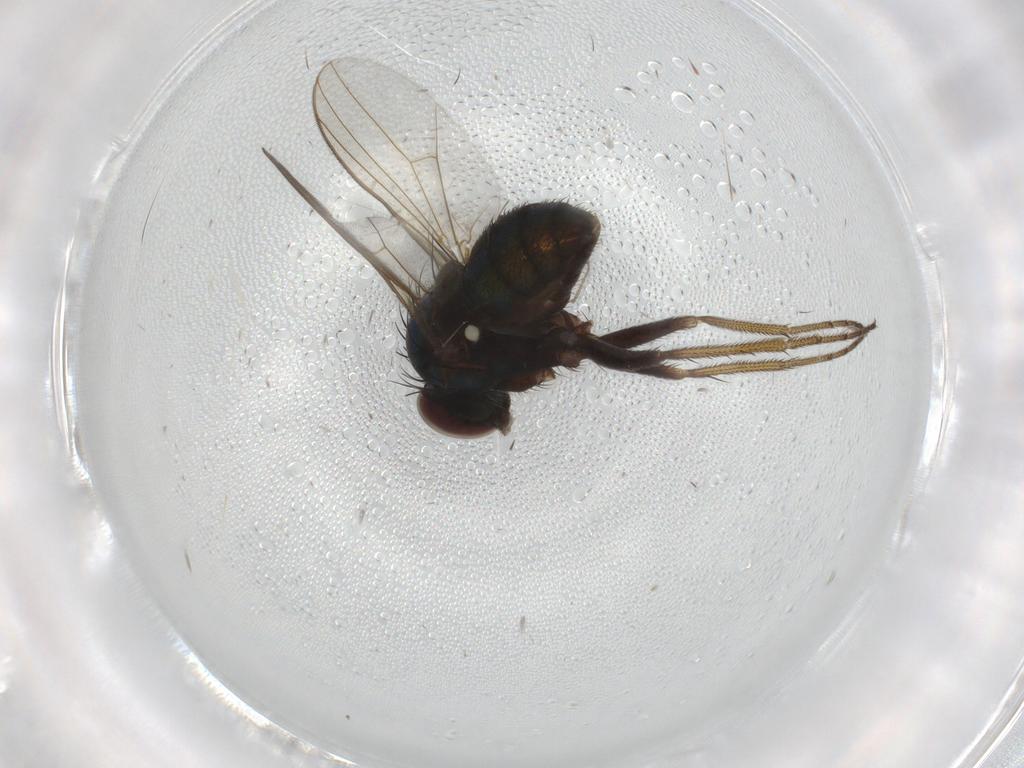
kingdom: Animalia
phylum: Arthropoda
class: Insecta
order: Diptera
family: Dolichopodidae
